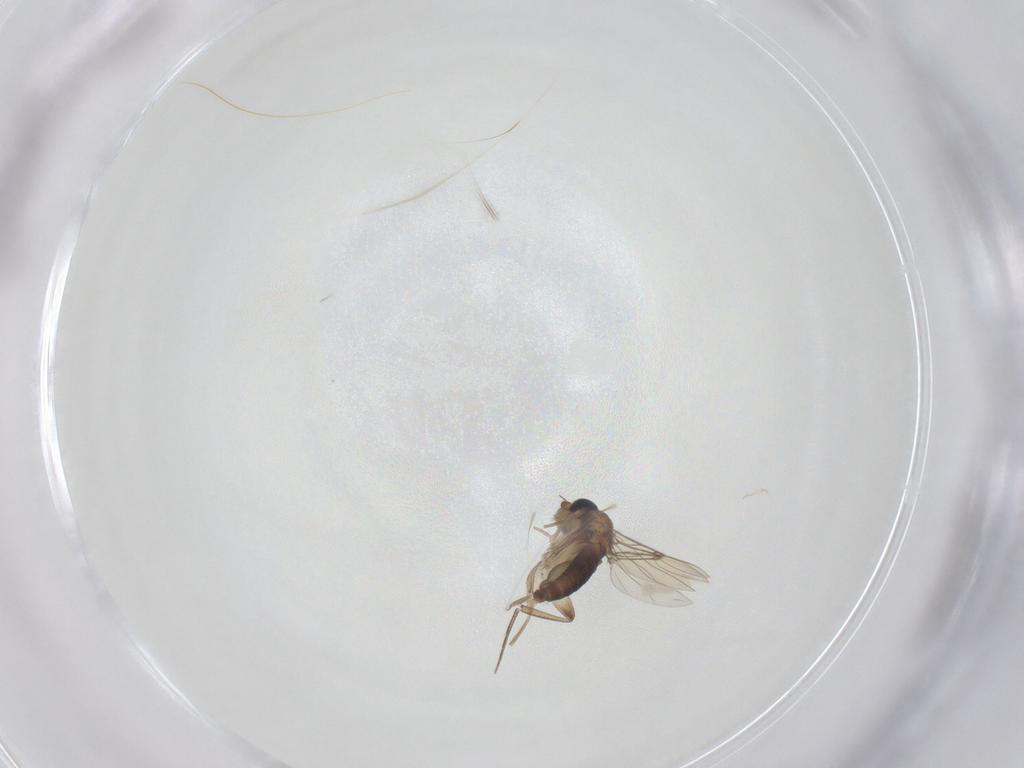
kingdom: Animalia
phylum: Arthropoda
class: Insecta
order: Diptera
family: Phoridae
